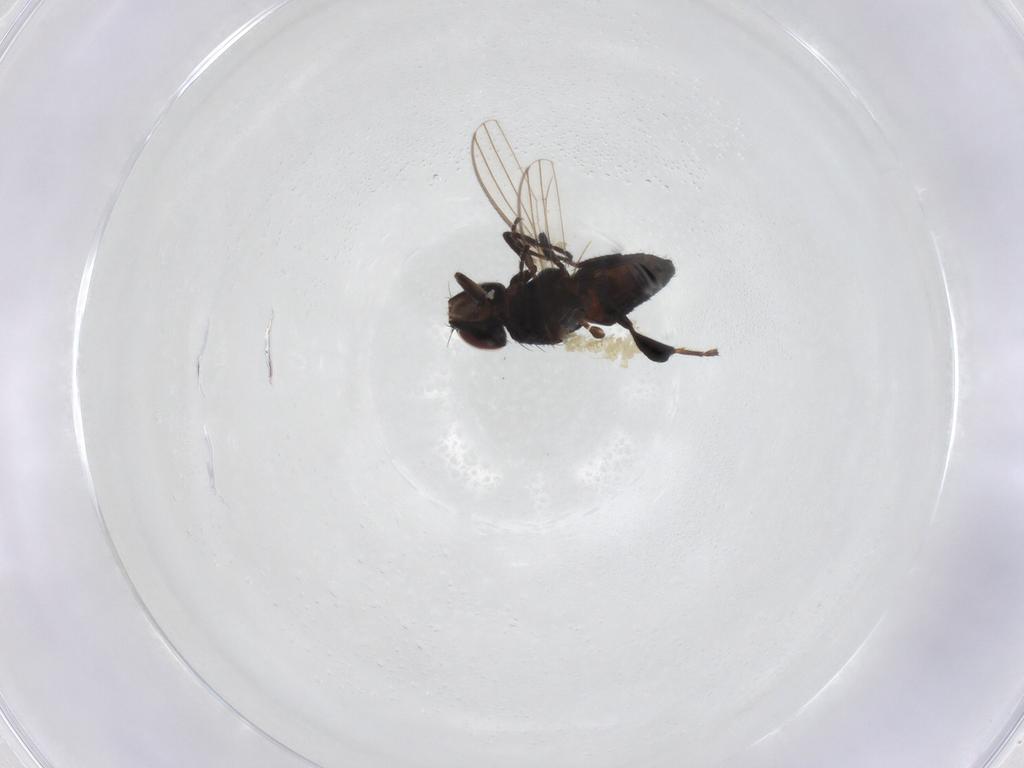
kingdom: Animalia
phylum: Arthropoda
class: Insecta
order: Diptera
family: Milichiidae
